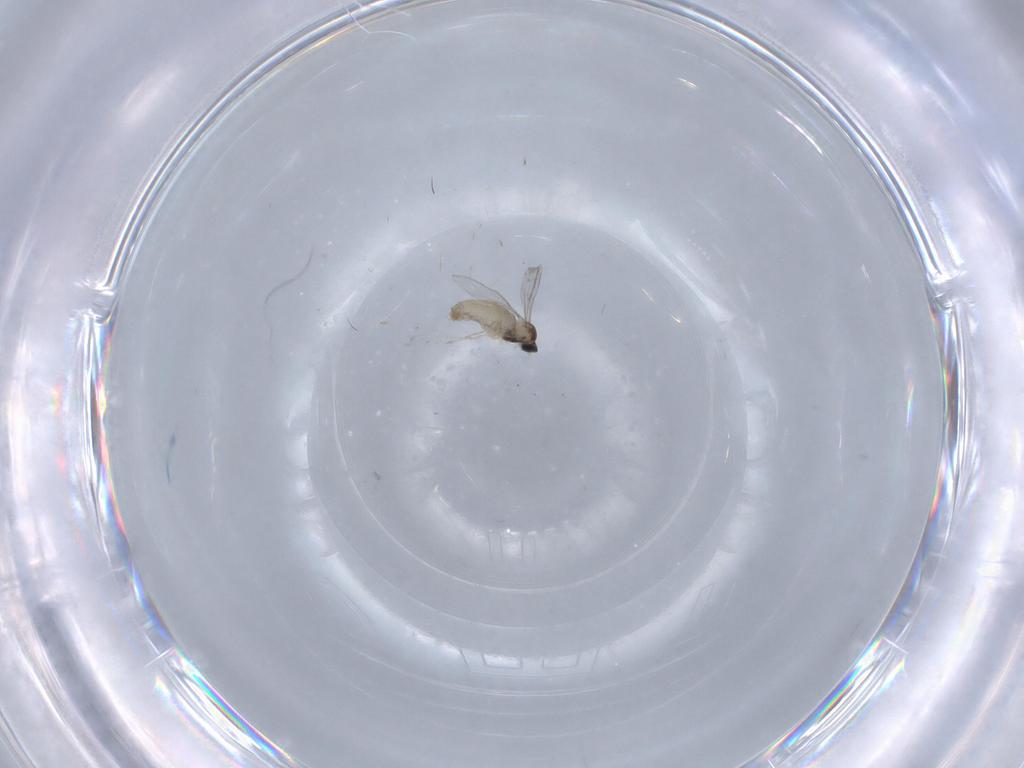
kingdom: Animalia
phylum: Arthropoda
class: Insecta
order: Diptera
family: Cecidomyiidae
